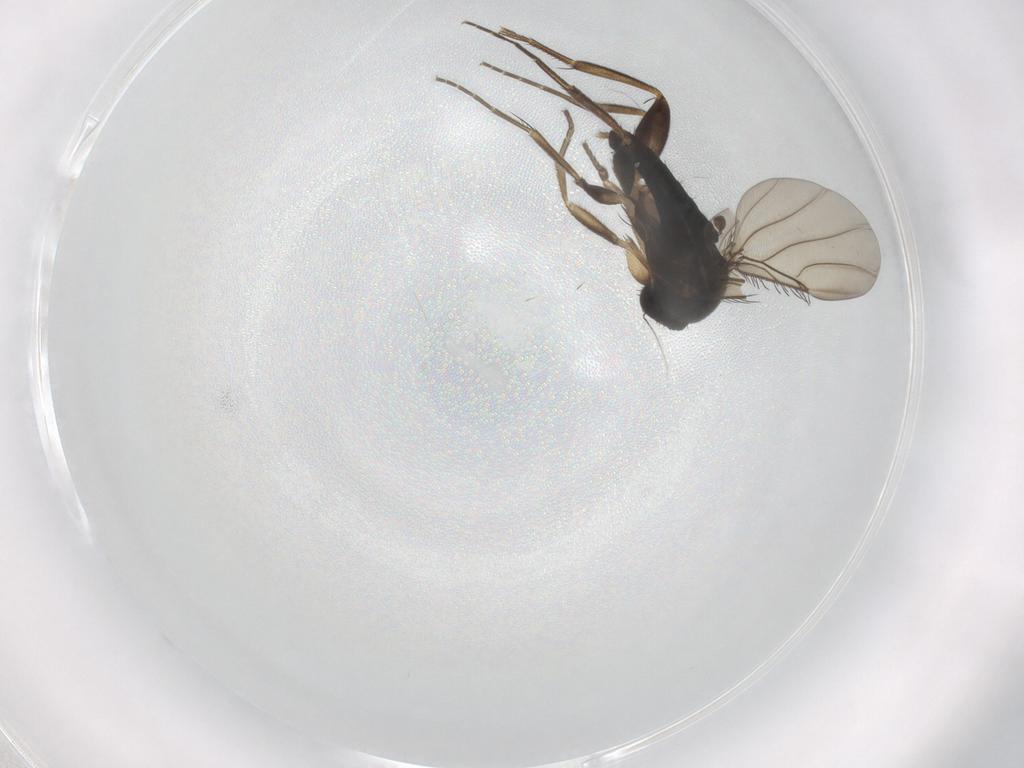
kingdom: Animalia
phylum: Arthropoda
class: Insecta
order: Diptera
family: Phoridae
